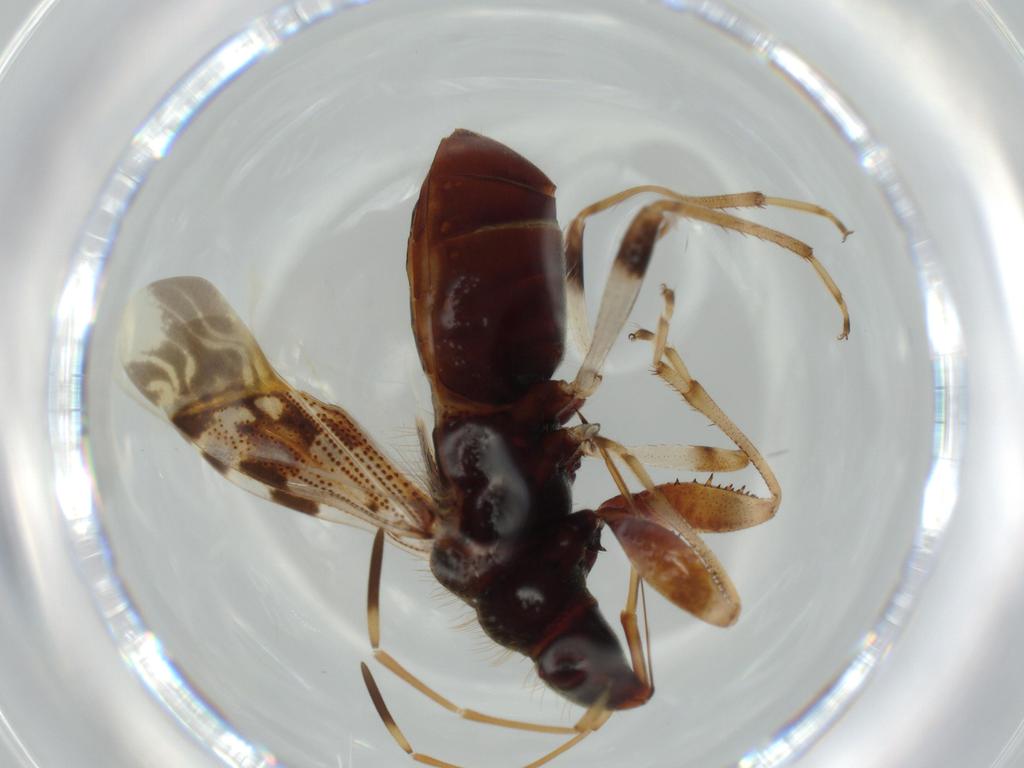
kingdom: Animalia
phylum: Arthropoda
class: Insecta
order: Hemiptera
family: Rhyparochromidae
